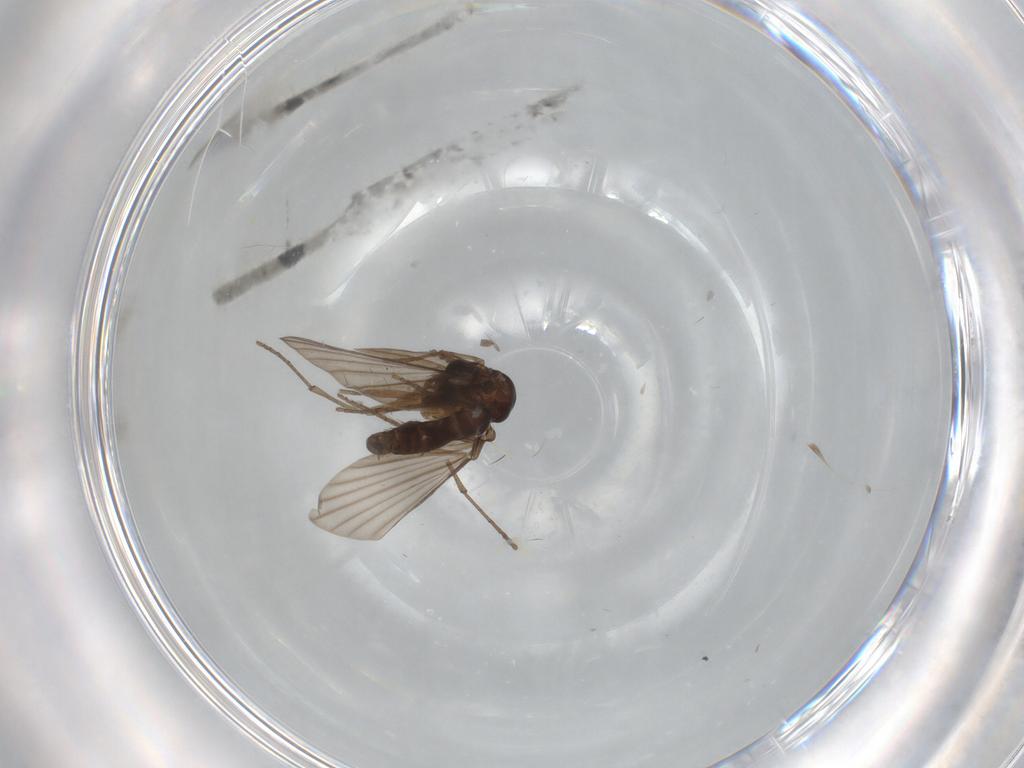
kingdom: Animalia
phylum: Arthropoda
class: Insecta
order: Diptera
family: Psychodidae
